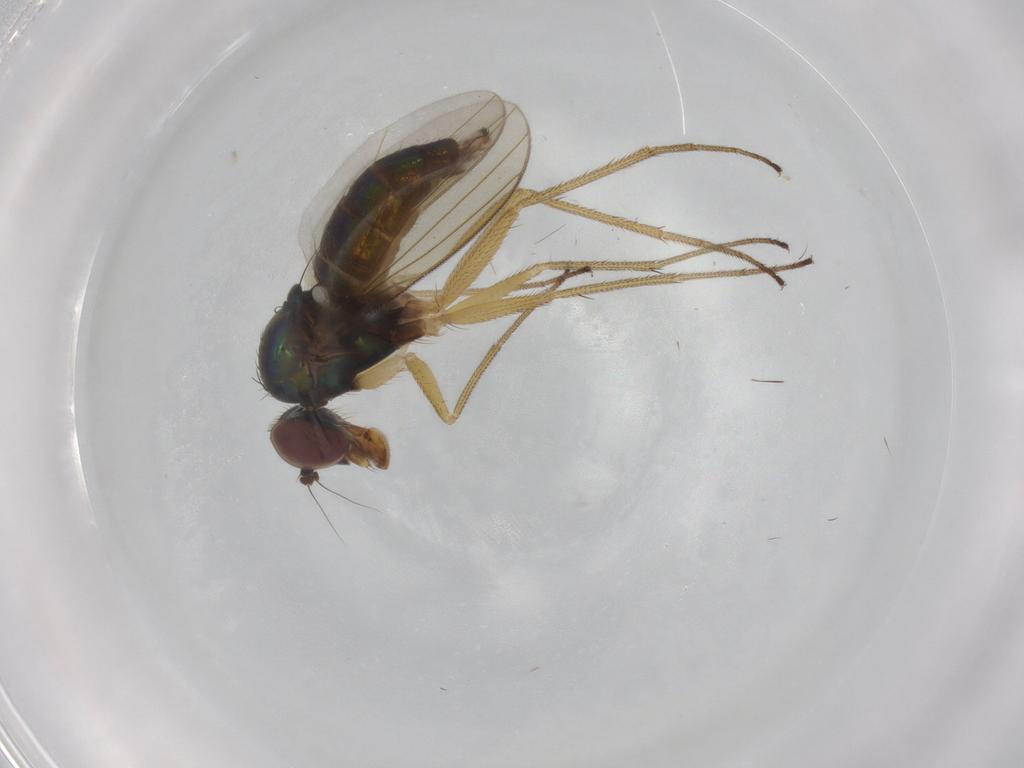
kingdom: Animalia
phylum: Arthropoda
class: Insecta
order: Diptera
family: Dolichopodidae
